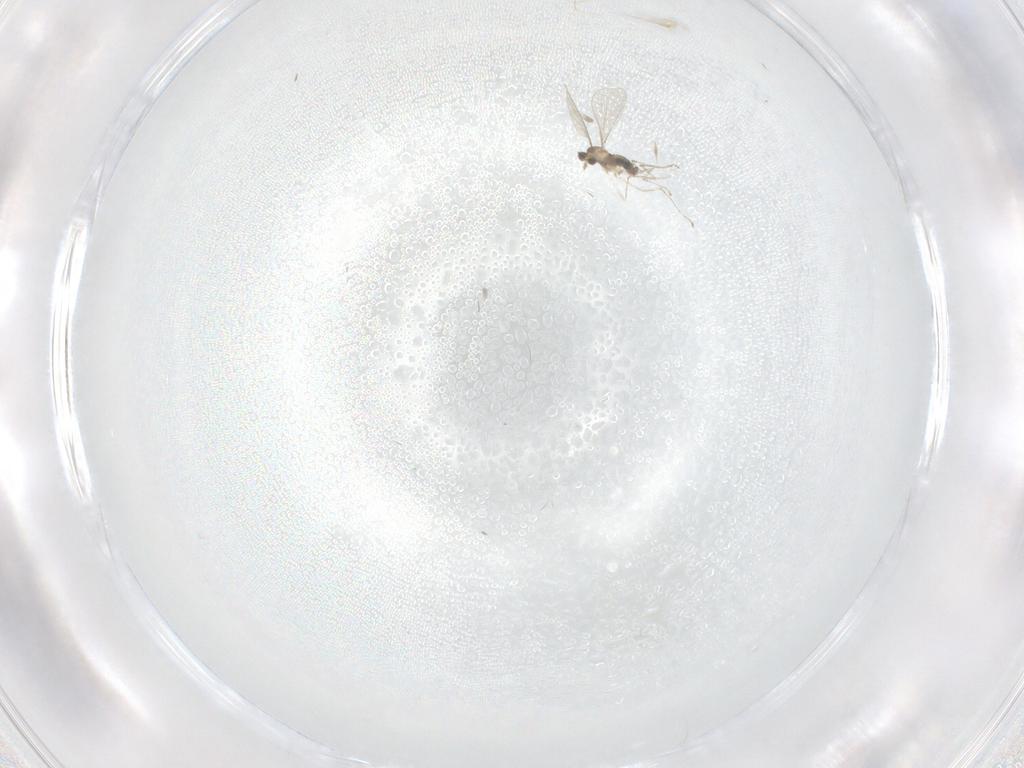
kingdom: Animalia
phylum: Arthropoda
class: Insecta
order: Diptera
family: Cecidomyiidae
